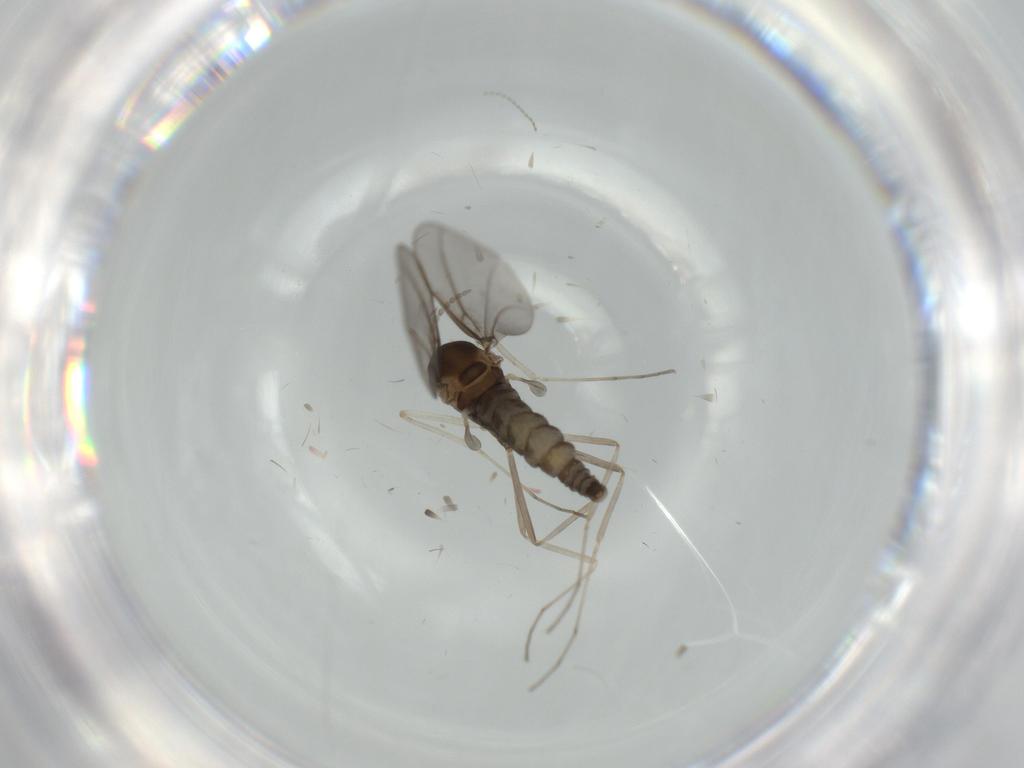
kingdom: Animalia
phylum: Arthropoda
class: Insecta
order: Diptera
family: Cecidomyiidae
